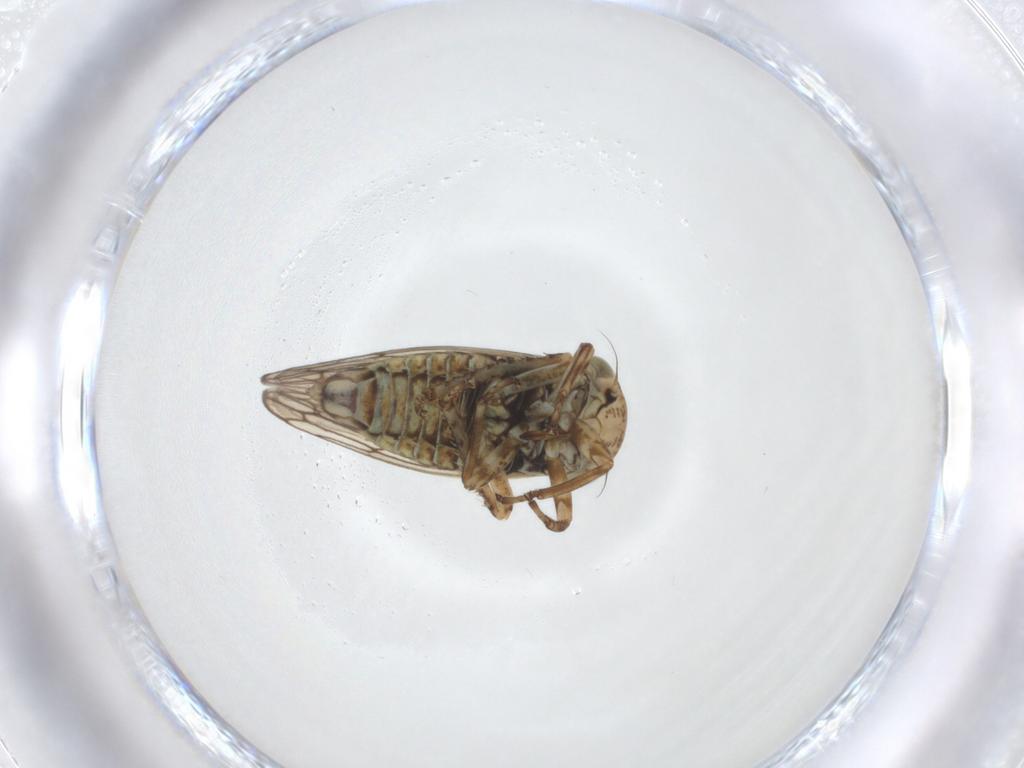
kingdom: Animalia
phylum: Arthropoda
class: Insecta
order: Hemiptera
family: Cicadellidae
